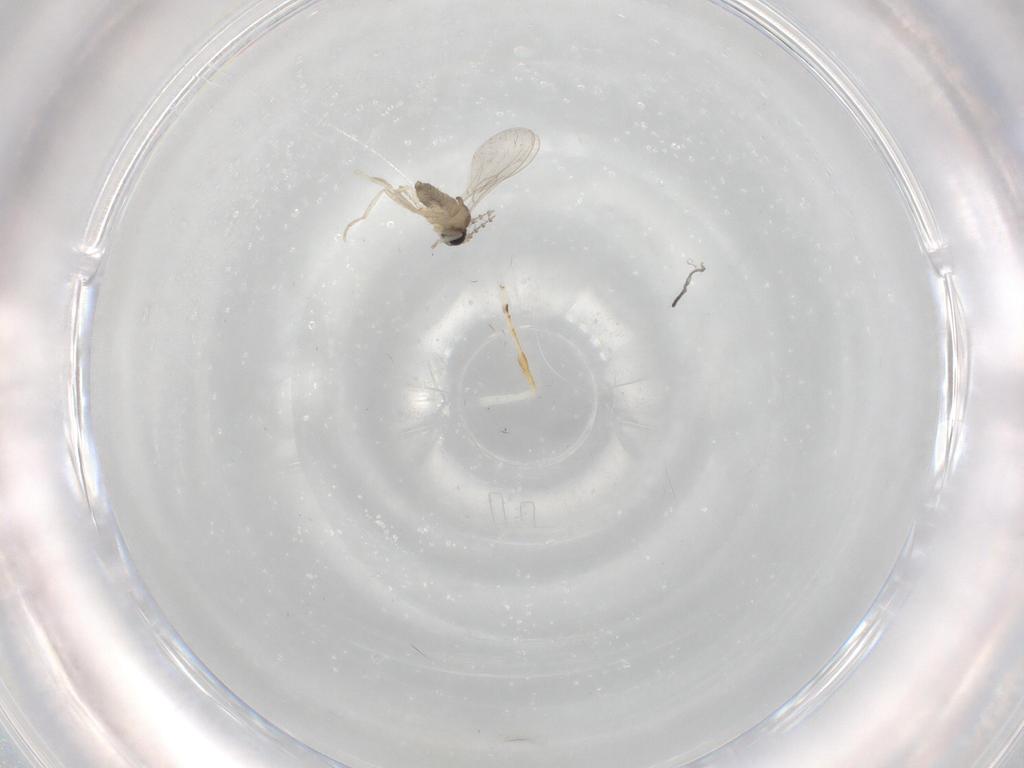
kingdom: Animalia
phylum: Arthropoda
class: Insecta
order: Diptera
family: Cecidomyiidae
